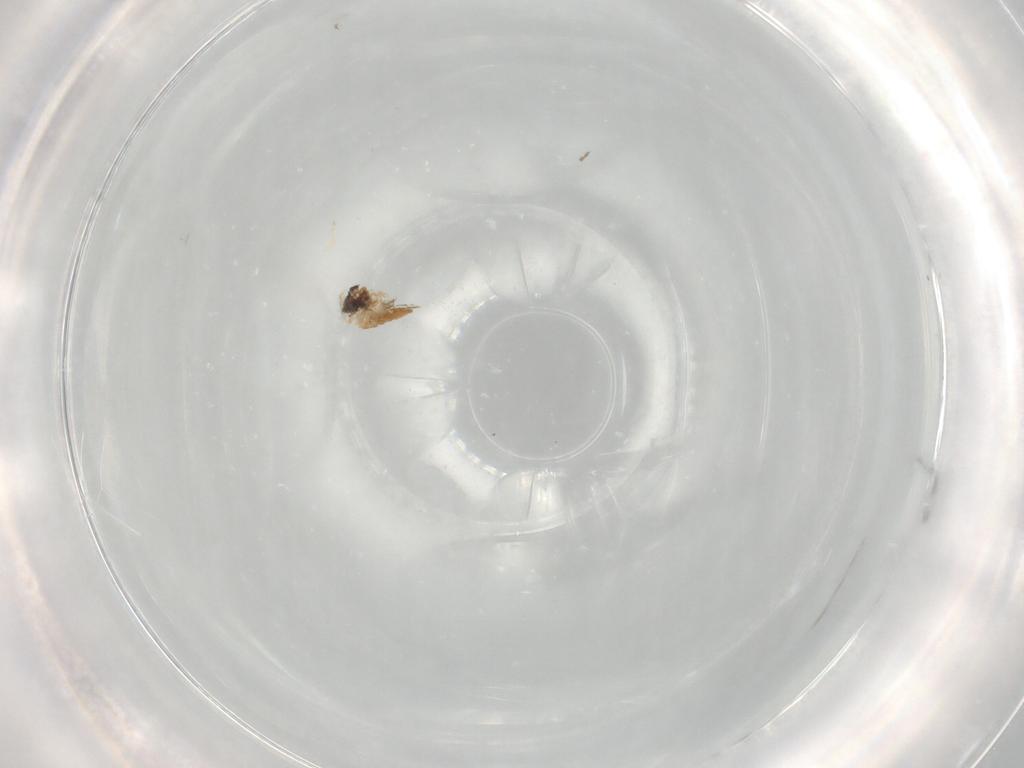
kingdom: Animalia
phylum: Arthropoda
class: Insecta
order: Diptera
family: Cecidomyiidae
